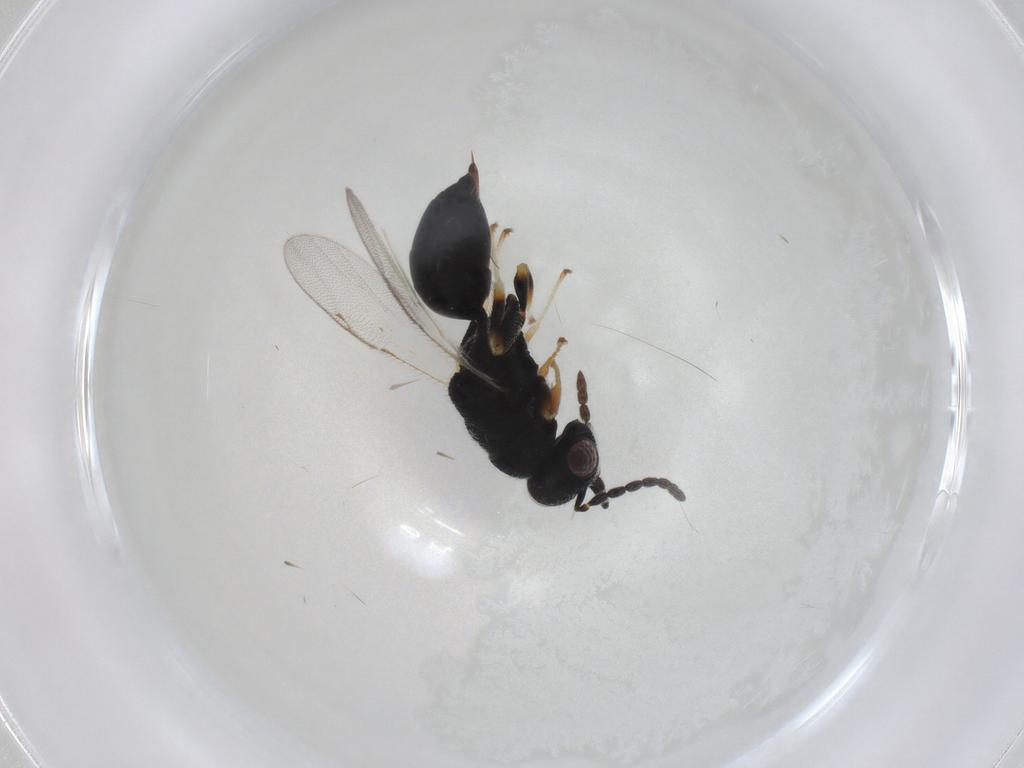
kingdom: Animalia
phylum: Arthropoda
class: Insecta
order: Hymenoptera
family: Eurytomidae
